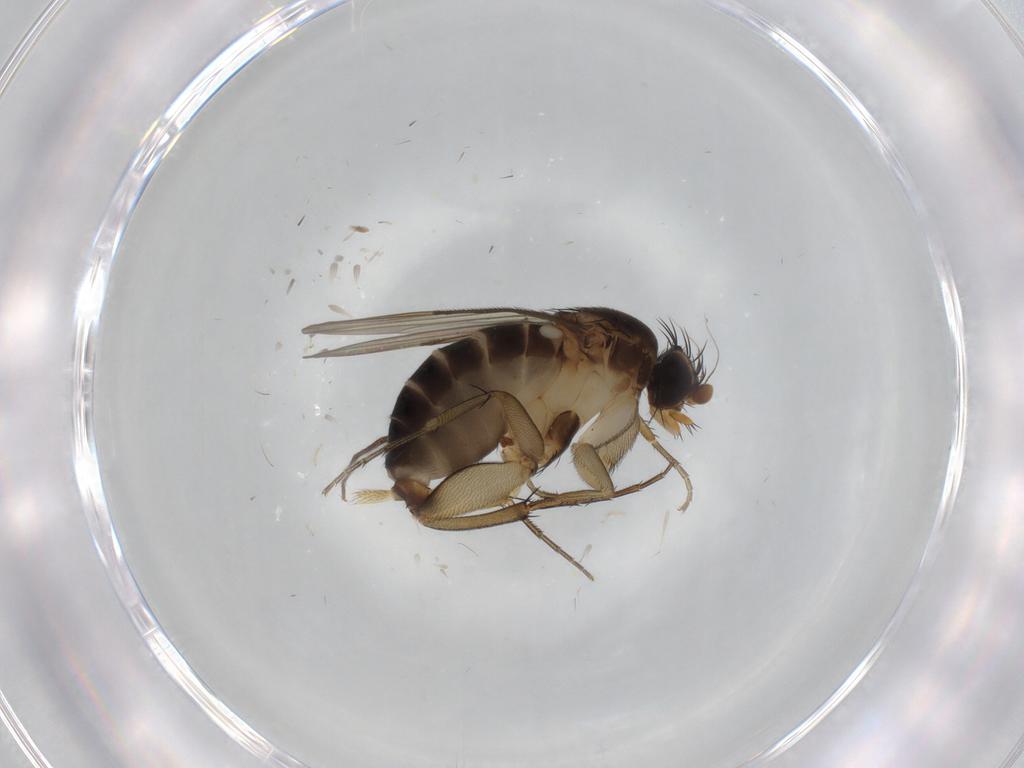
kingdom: Animalia
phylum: Arthropoda
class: Insecta
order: Diptera
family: Phoridae
